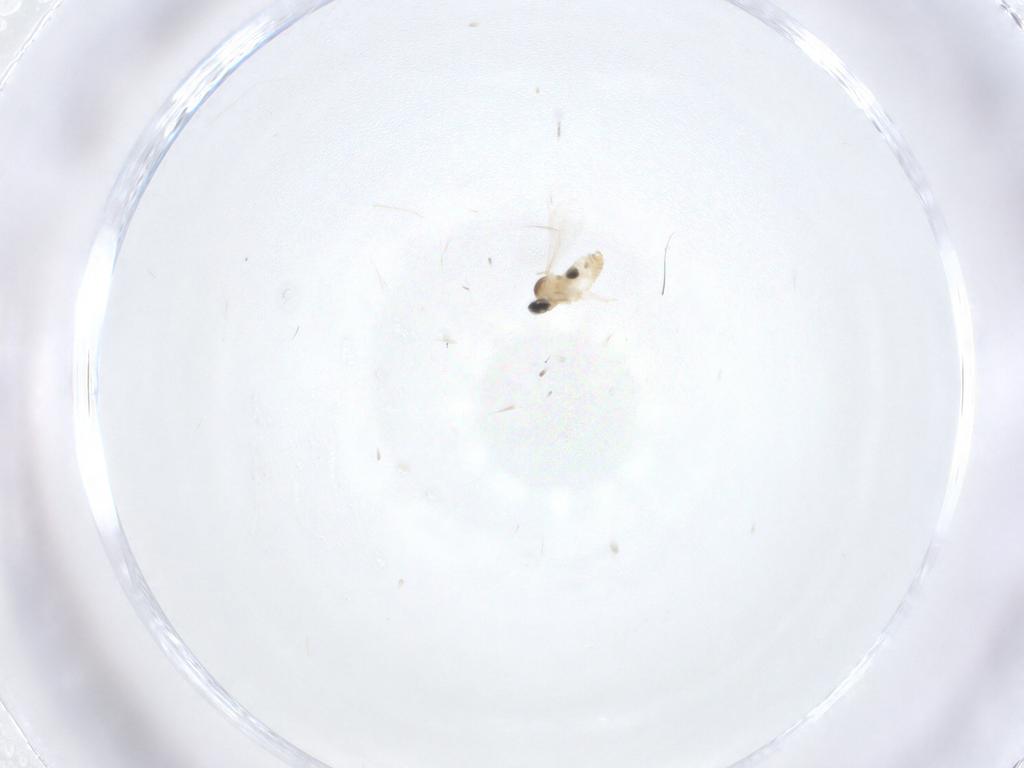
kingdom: Animalia
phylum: Arthropoda
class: Insecta
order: Diptera
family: Cecidomyiidae
